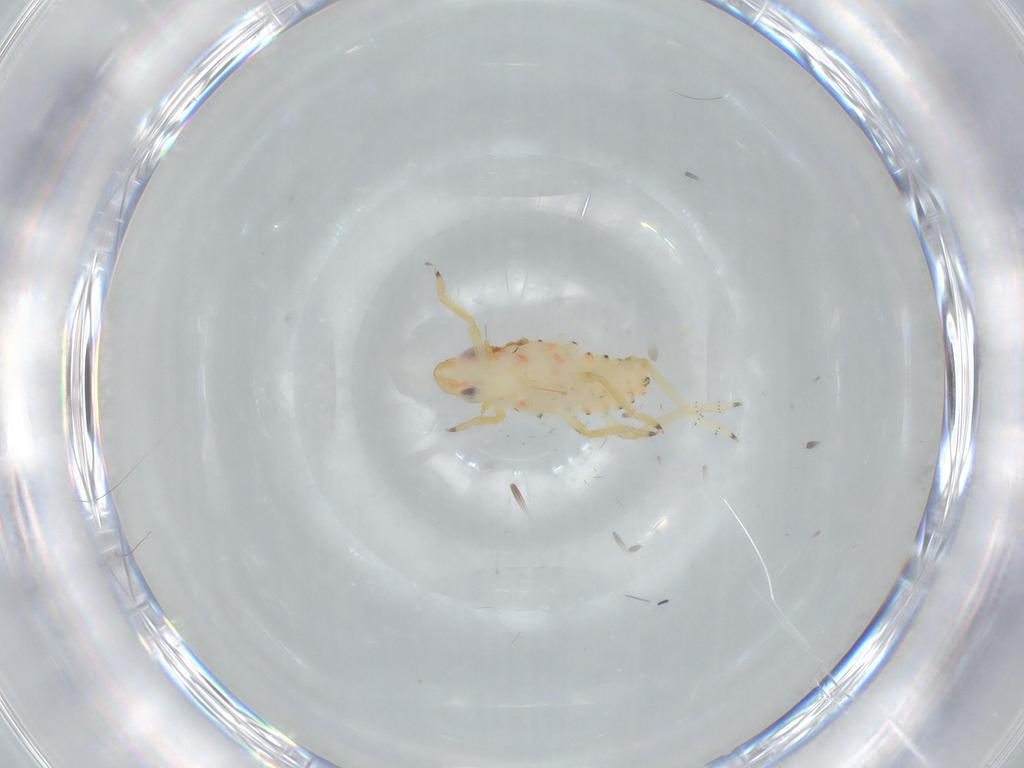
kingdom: Animalia
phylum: Arthropoda
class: Insecta
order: Hemiptera
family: Tropiduchidae
